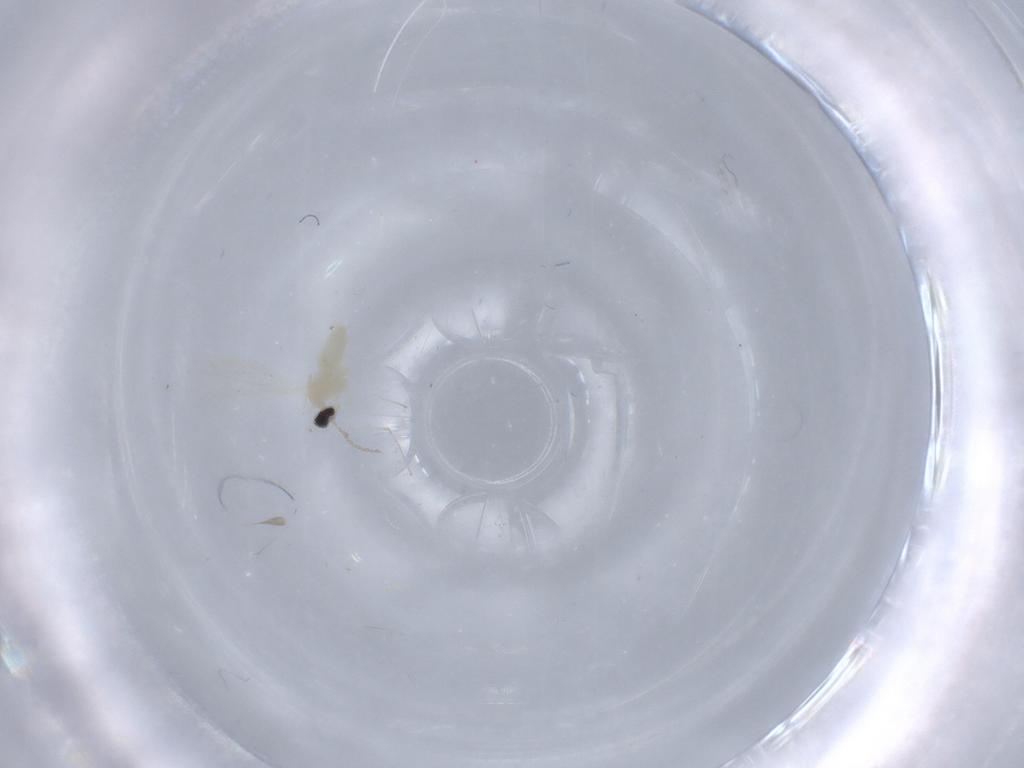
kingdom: Animalia
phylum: Arthropoda
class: Insecta
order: Diptera
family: Cecidomyiidae
